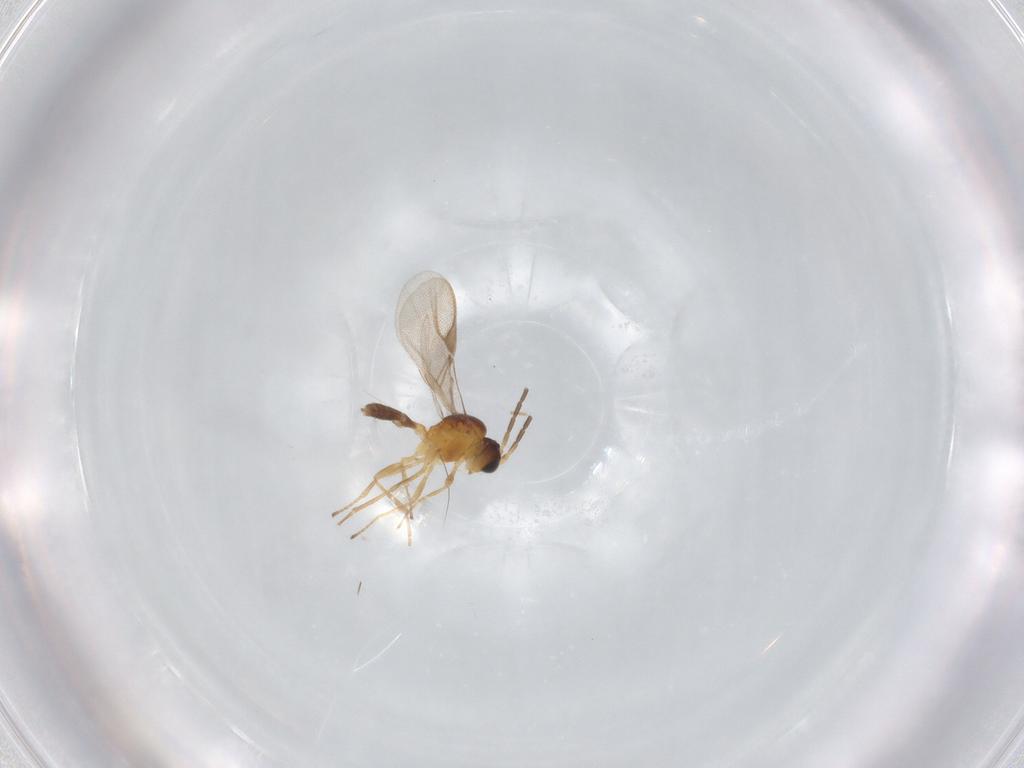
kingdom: Animalia
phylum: Arthropoda
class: Insecta
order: Hymenoptera
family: Braconidae
